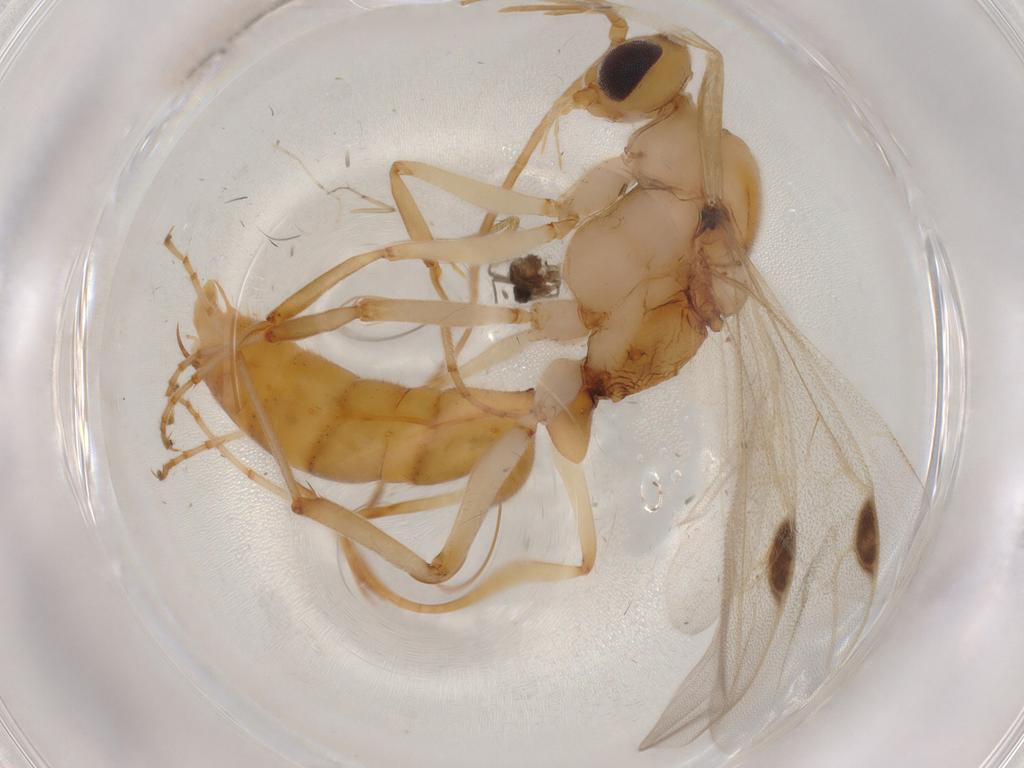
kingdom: Animalia
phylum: Arthropoda
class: Insecta
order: Hymenoptera
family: Formicidae
